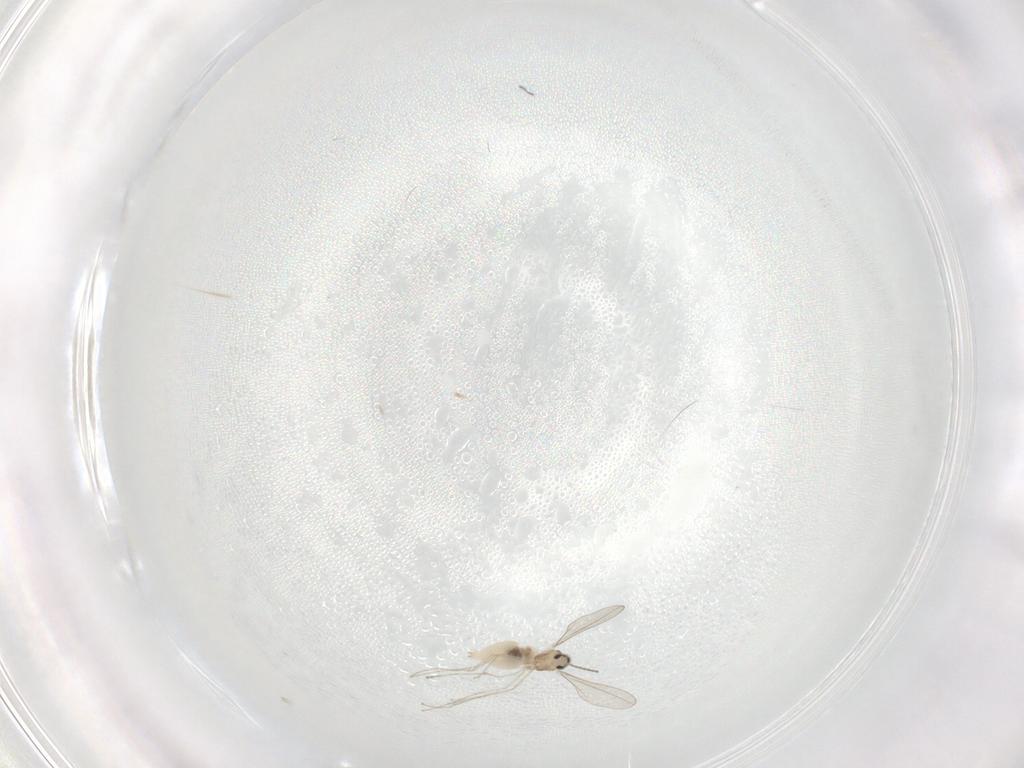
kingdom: Animalia
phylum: Arthropoda
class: Insecta
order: Diptera
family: Cecidomyiidae
